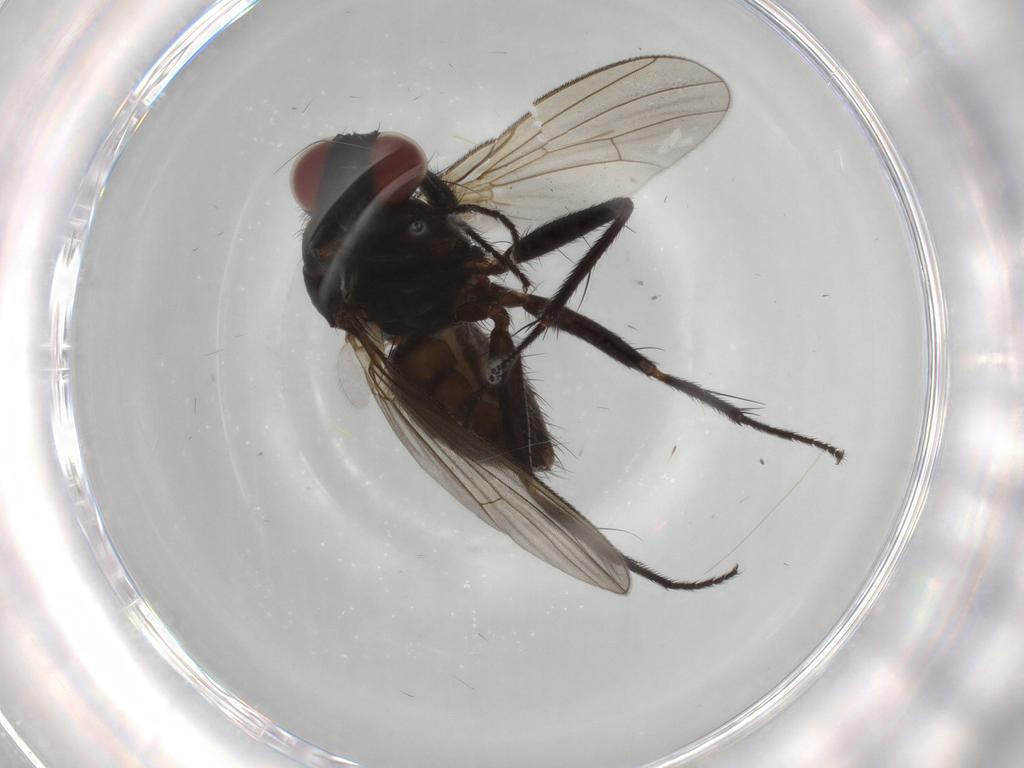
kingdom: Animalia
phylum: Arthropoda
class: Insecta
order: Diptera
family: Muscidae
